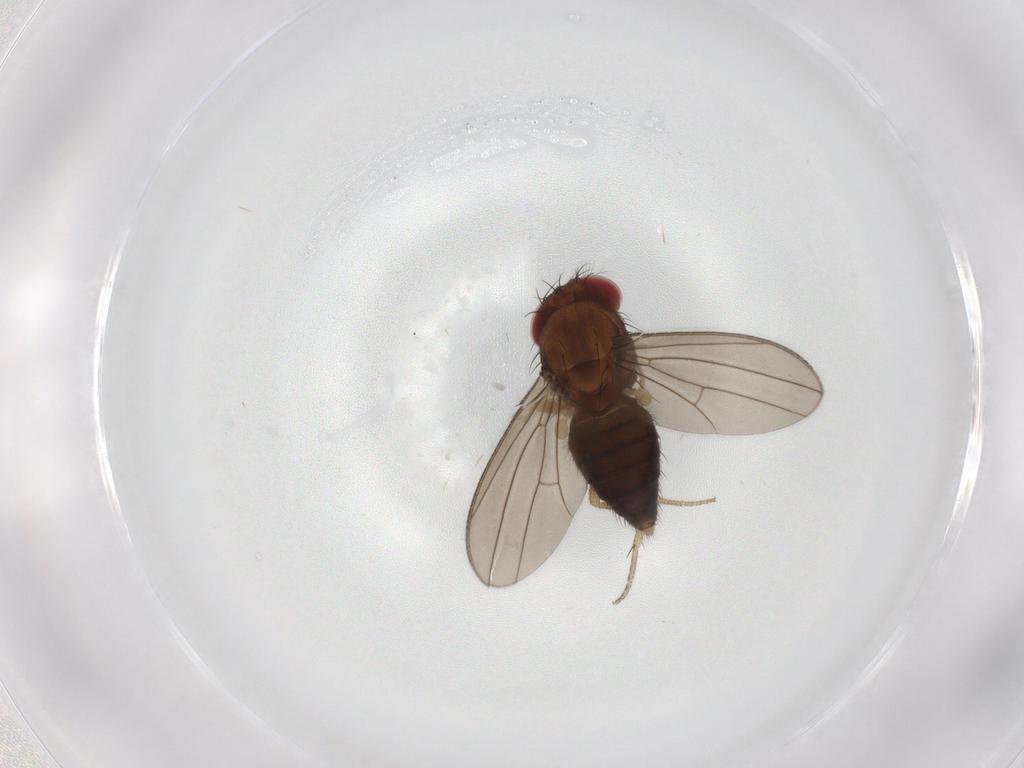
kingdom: Animalia
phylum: Arthropoda
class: Insecta
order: Diptera
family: Drosophilidae
